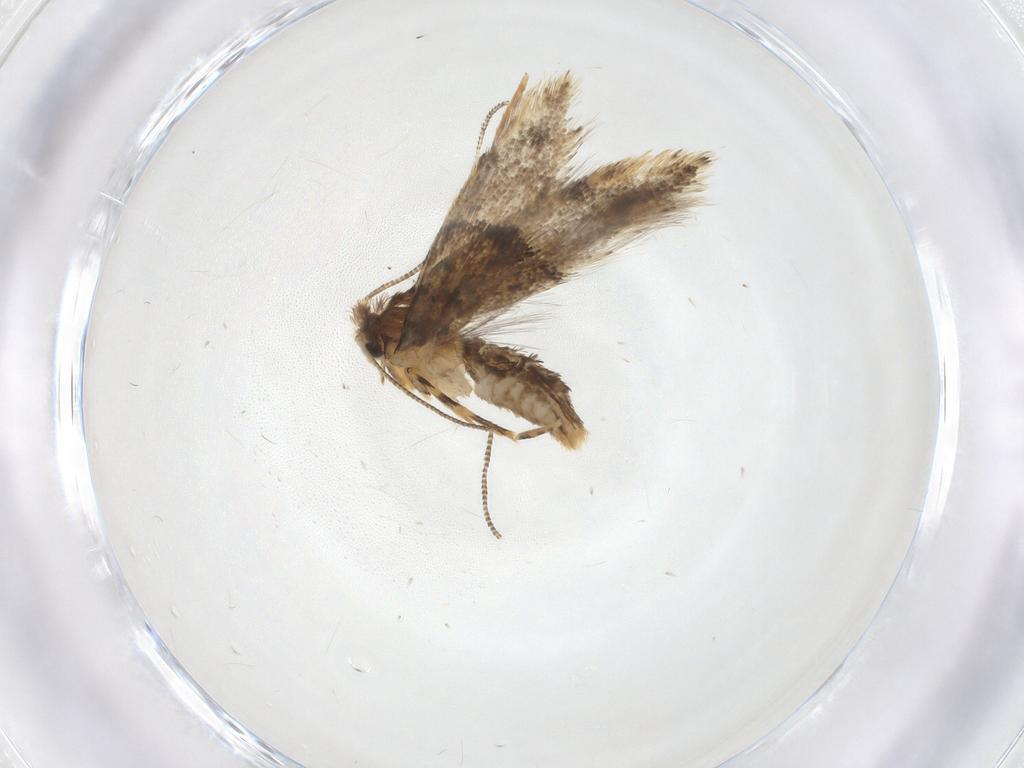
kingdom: Animalia
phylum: Arthropoda
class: Insecta
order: Lepidoptera
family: Tineidae
